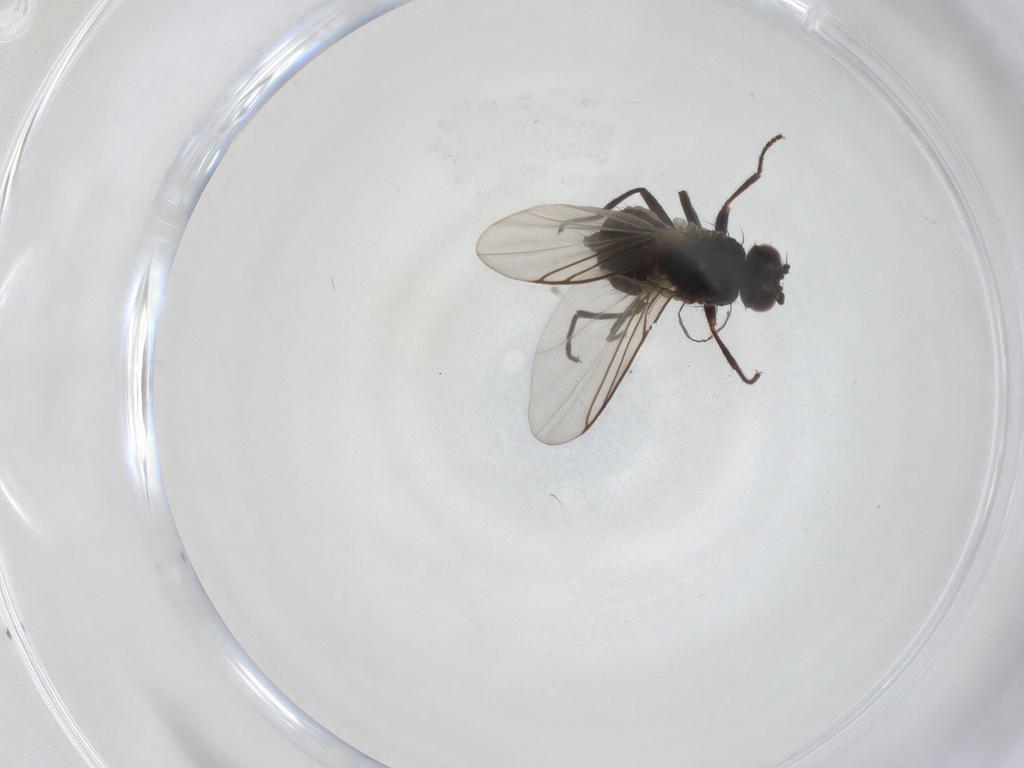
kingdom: Animalia
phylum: Arthropoda
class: Insecta
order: Diptera
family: Agromyzidae
